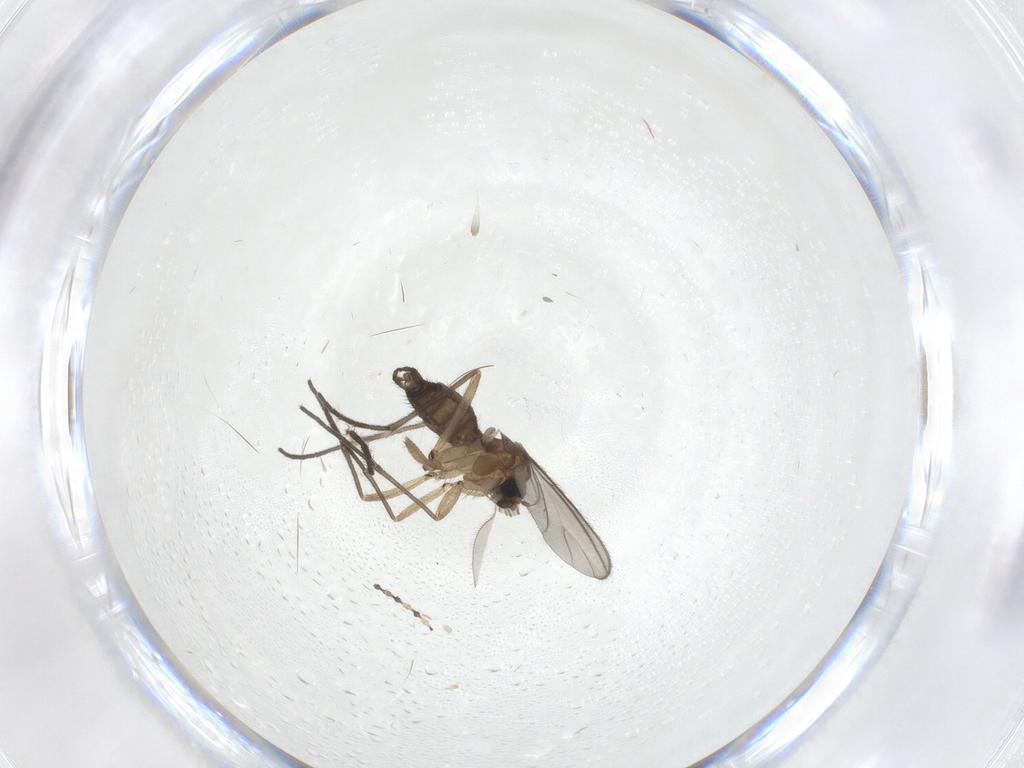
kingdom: Animalia
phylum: Arthropoda
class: Insecta
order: Diptera
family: Sciaridae
